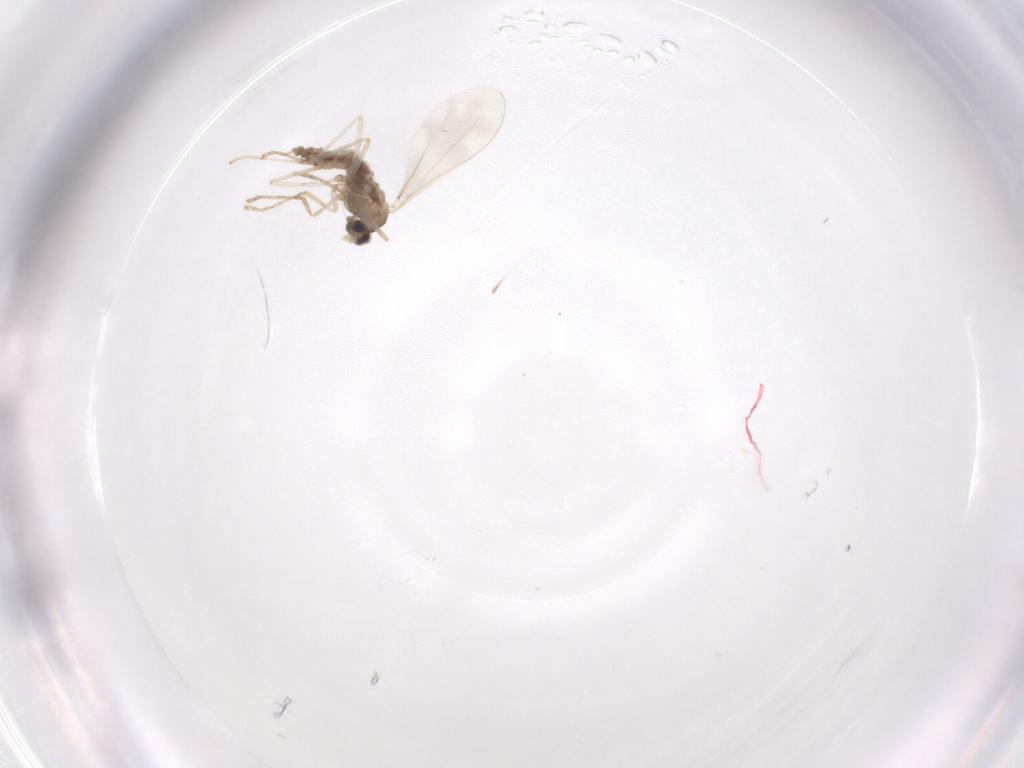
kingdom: Animalia
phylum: Arthropoda
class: Insecta
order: Diptera
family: Cecidomyiidae
